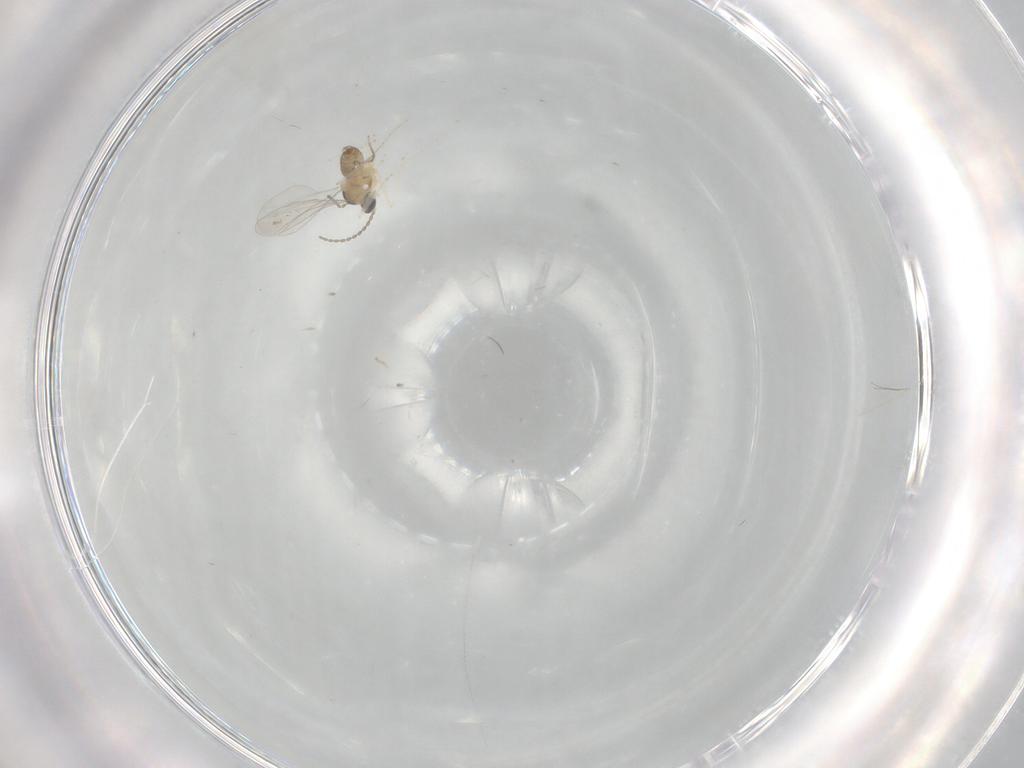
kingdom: Animalia
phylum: Arthropoda
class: Insecta
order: Diptera
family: Cecidomyiidae
